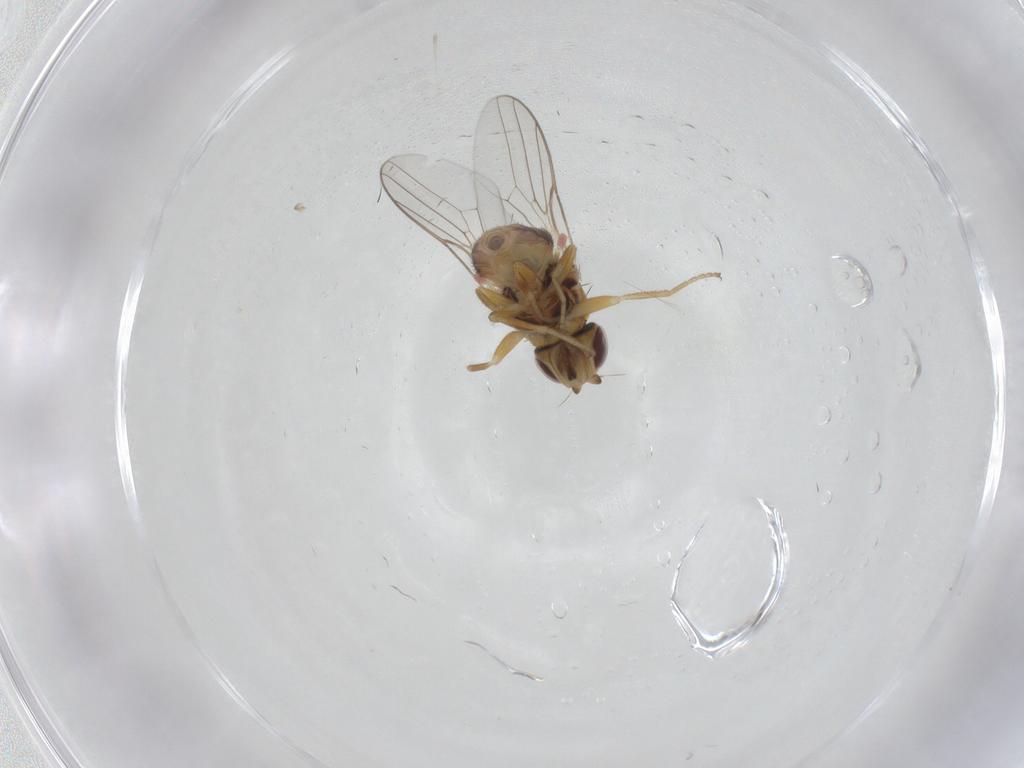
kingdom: Animalia
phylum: Arthropoda
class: Insecta
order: Diptera
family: Chloropidae
